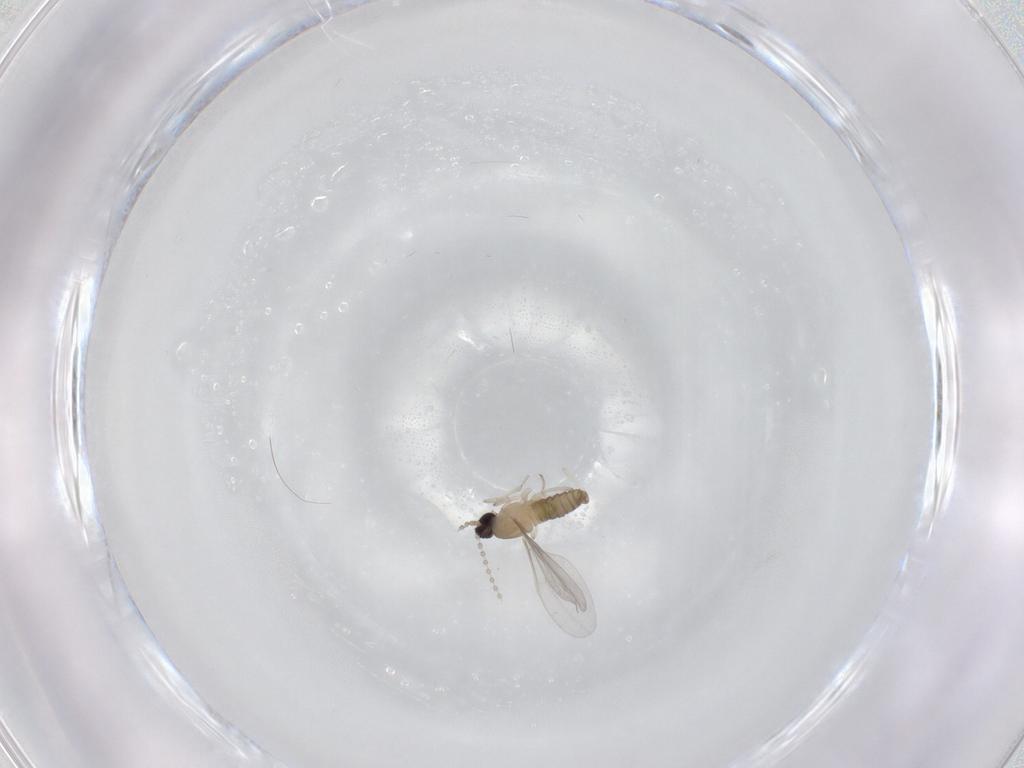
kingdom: Animalia
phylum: Arthropoda
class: Insecta
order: Diptera
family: Cecidomyiidae
